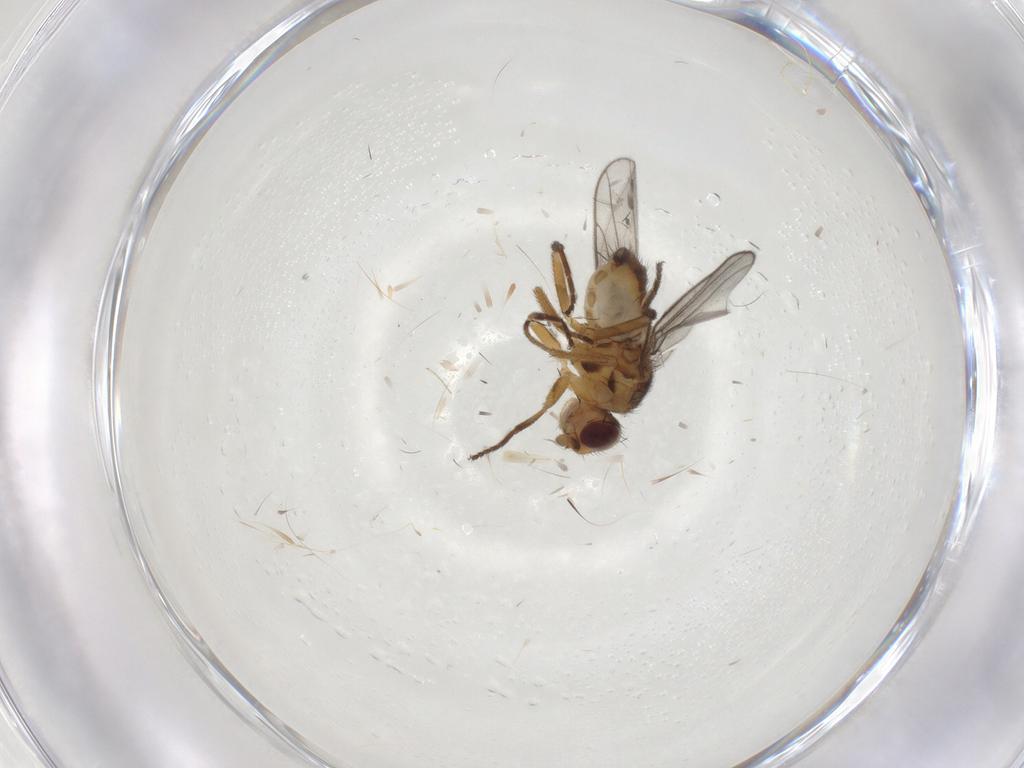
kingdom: Animalia
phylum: Arthropoda
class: Insecta
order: Diptera
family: Chloropidae
